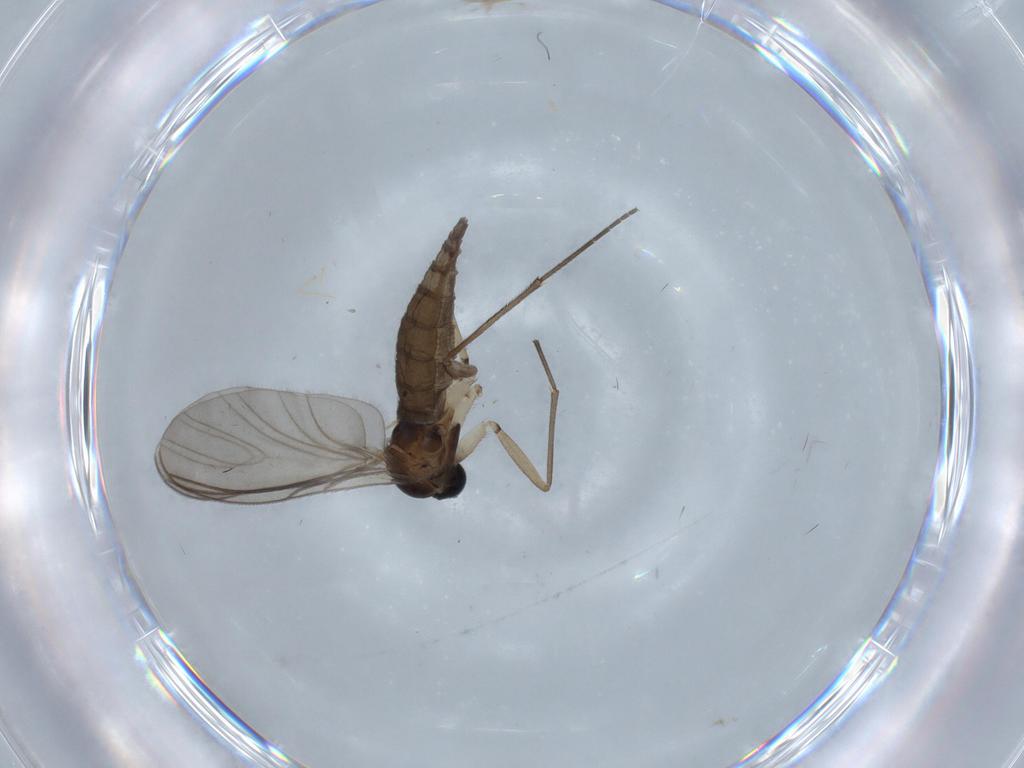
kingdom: Animalia
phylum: Arthropoda
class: Insecta
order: Diptera
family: Sciaridae
